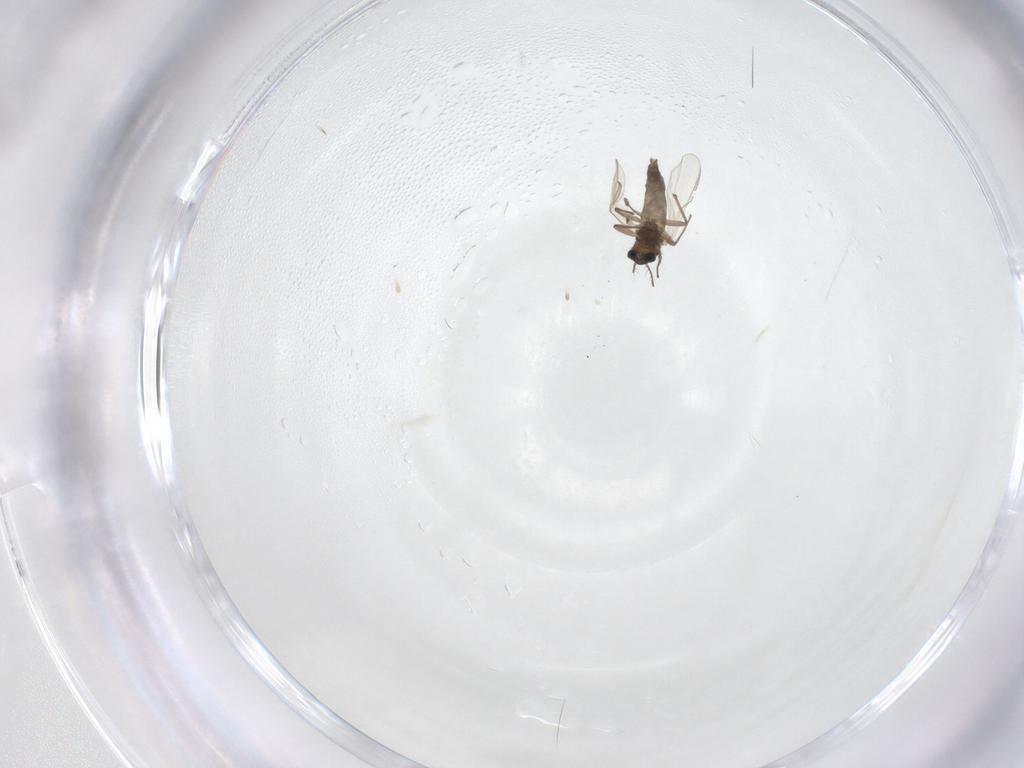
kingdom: Animalia
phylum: Arthropoda
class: Insecta
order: Diptera
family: Chironomidae
